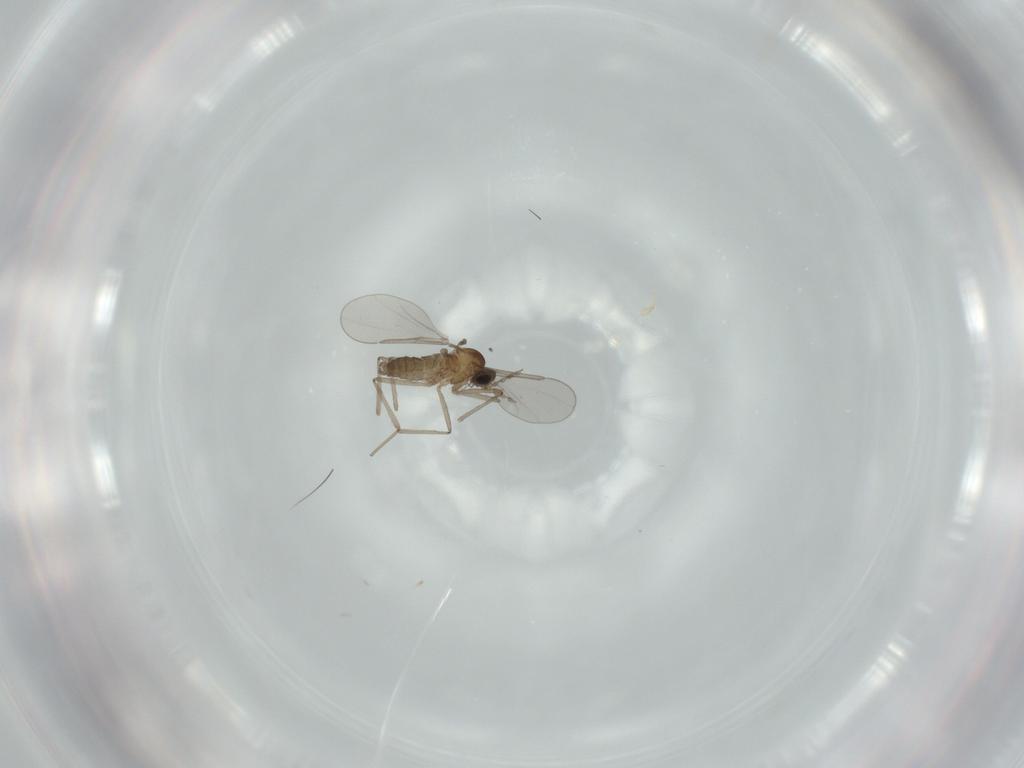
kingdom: Animalia
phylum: Arthropoda
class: Insecta
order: Diptera
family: Cecidomyiidae
